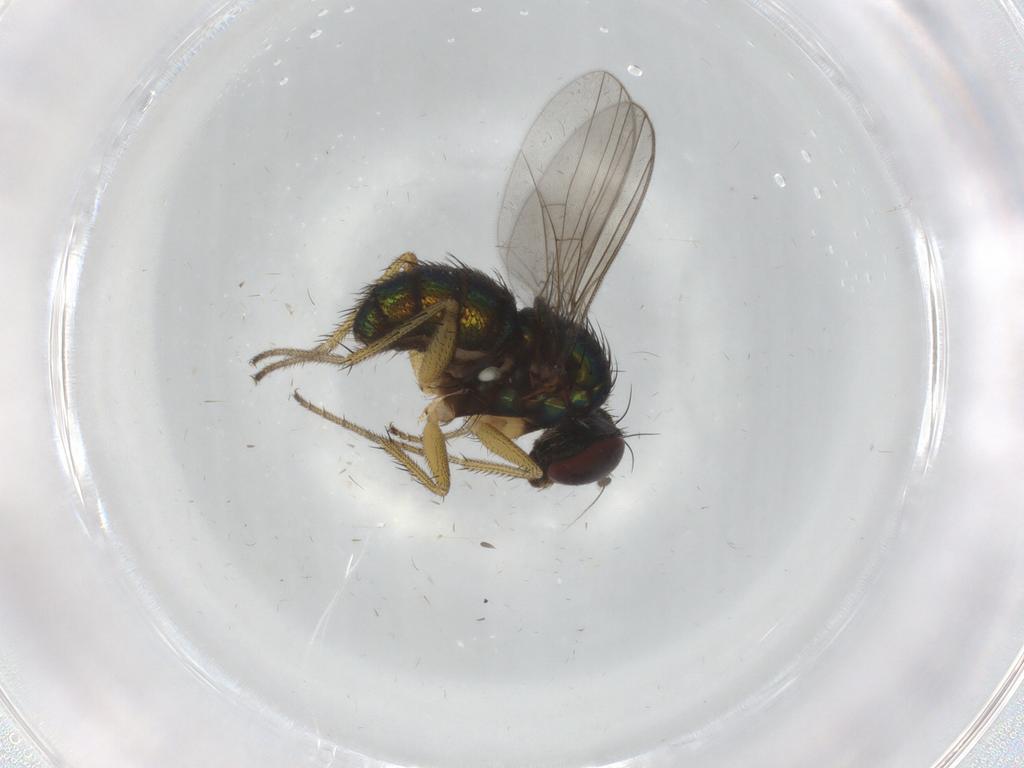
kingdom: Animalia
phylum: Arthropoda
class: Insecta
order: Diptera
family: Dolichopodidae
